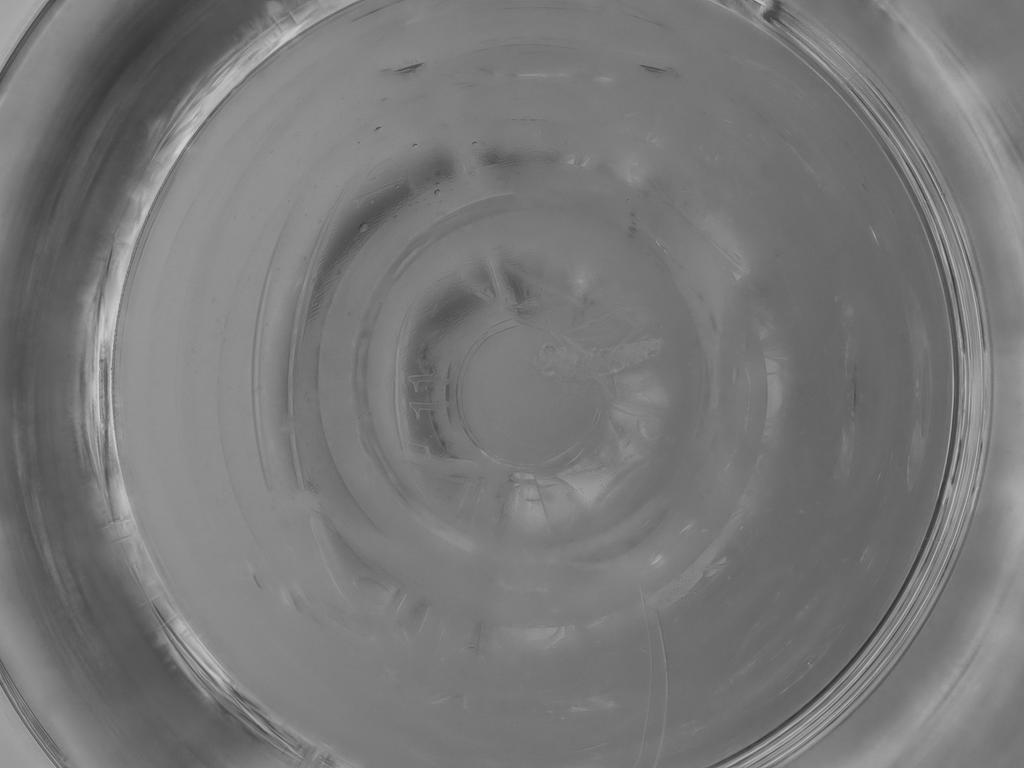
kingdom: Animalia
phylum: Arthropoda
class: Insecta
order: Diptera
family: Chironomidae
